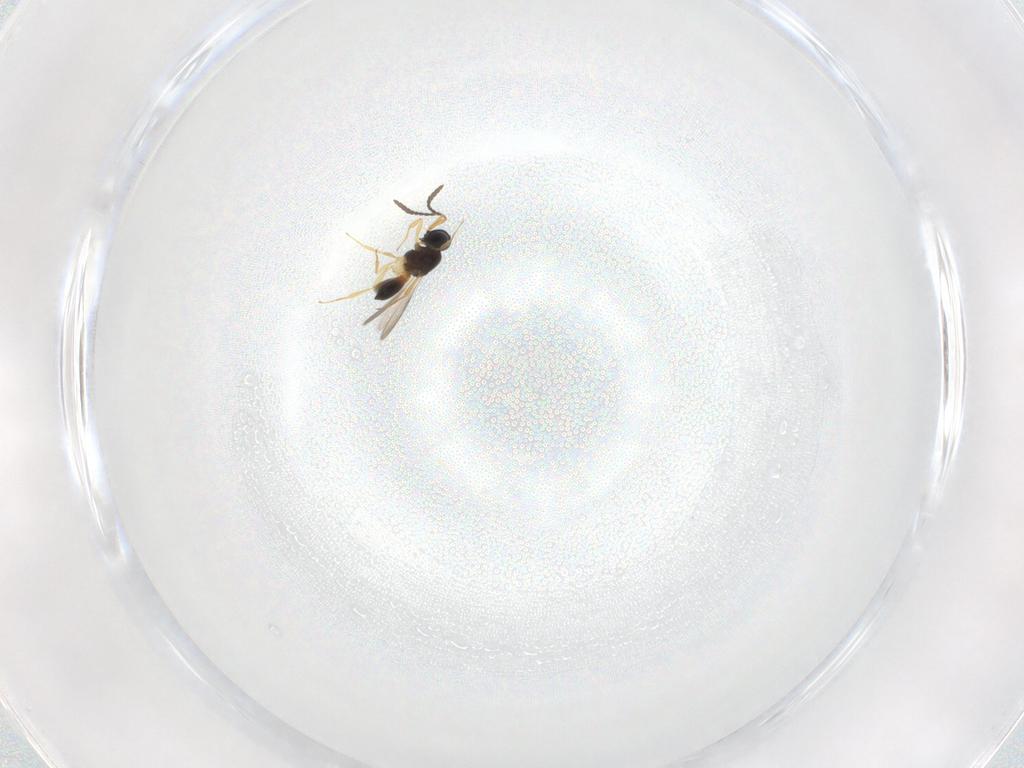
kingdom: Animalia
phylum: Arthropoda
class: Insecta
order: Hymenoptera
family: Scelionidae
